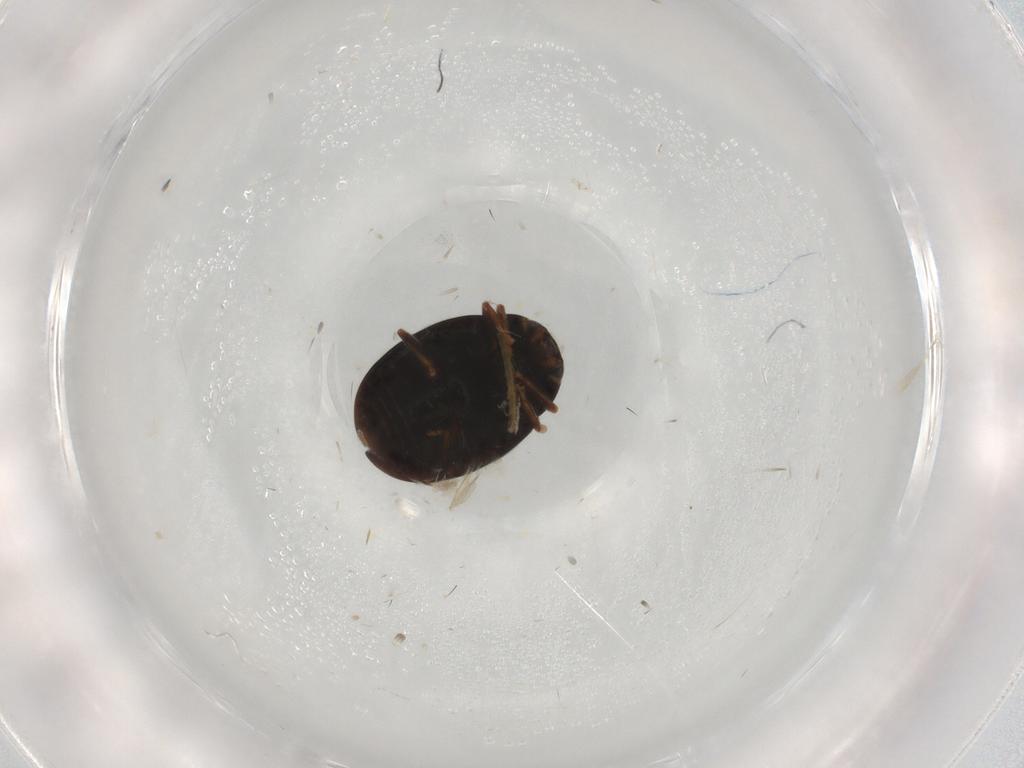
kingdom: Animalia
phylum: Arthropoda
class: Insecta
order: Coleoptera
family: Coccinellidae
